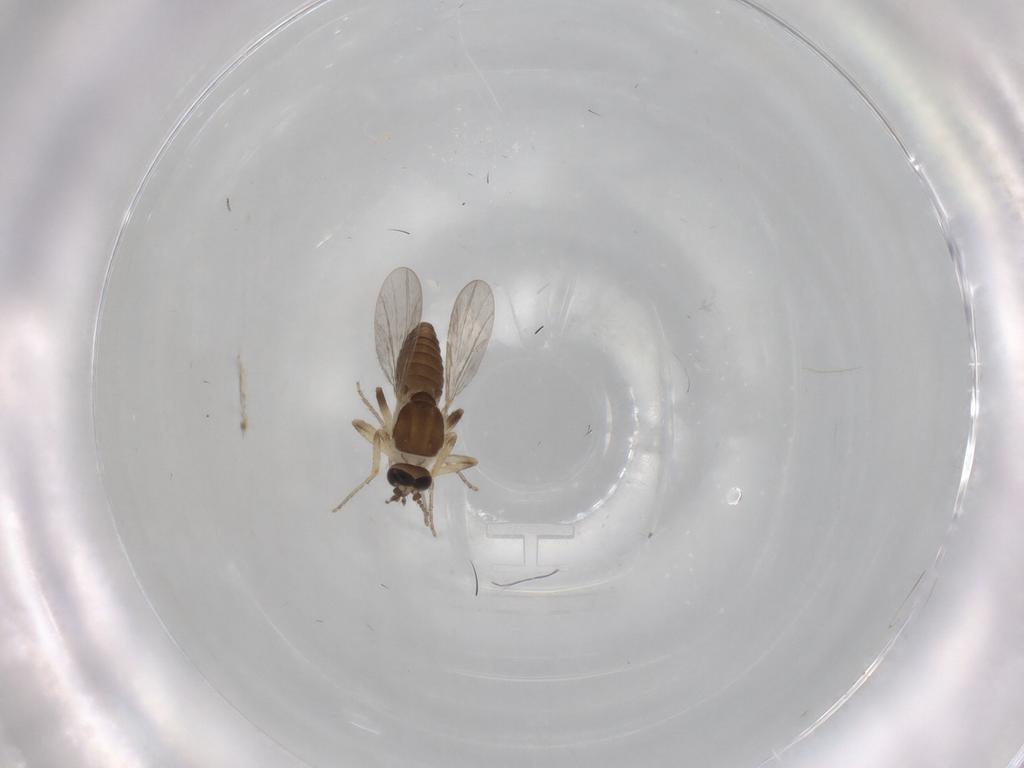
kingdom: Animalia
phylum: Arthropoda
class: Insecta
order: Diptera
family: Ceratopogonidae
